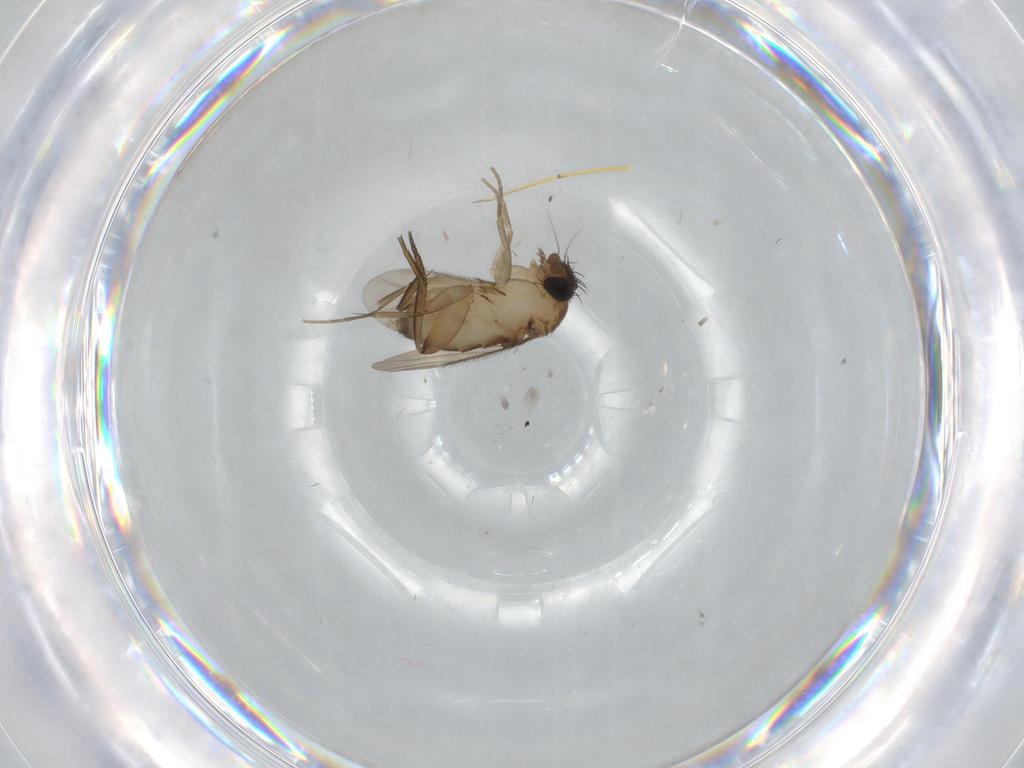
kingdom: Animalia
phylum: Arthropoda
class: Insecta
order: Diptera
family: Phoridae
